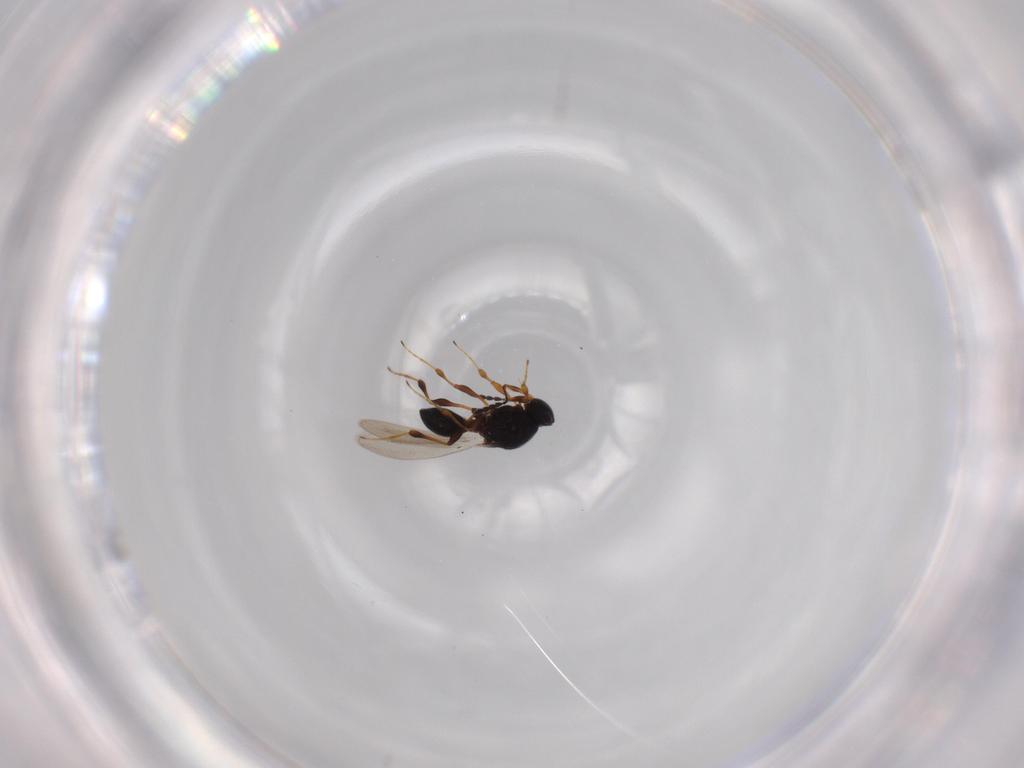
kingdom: Animalia
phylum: Arthropoda
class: Insecta
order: Hymenoptera
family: Platygastridae
